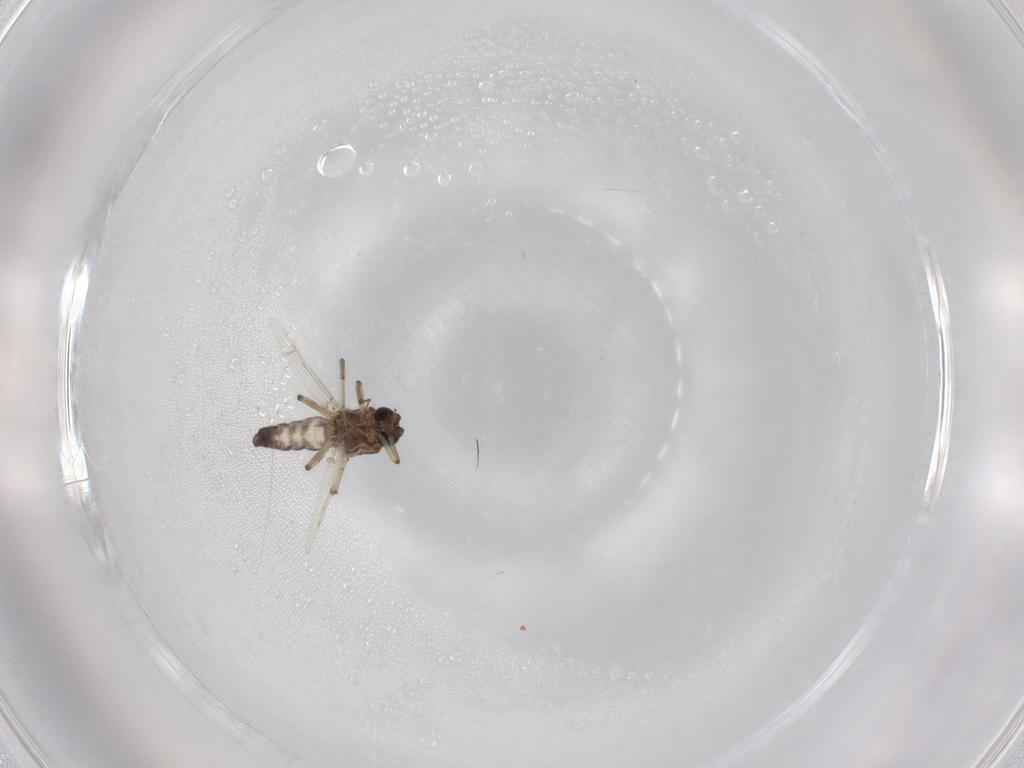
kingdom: Animalia
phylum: Arthropoda
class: Insecta
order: Diptera
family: Ceratopogonidae
